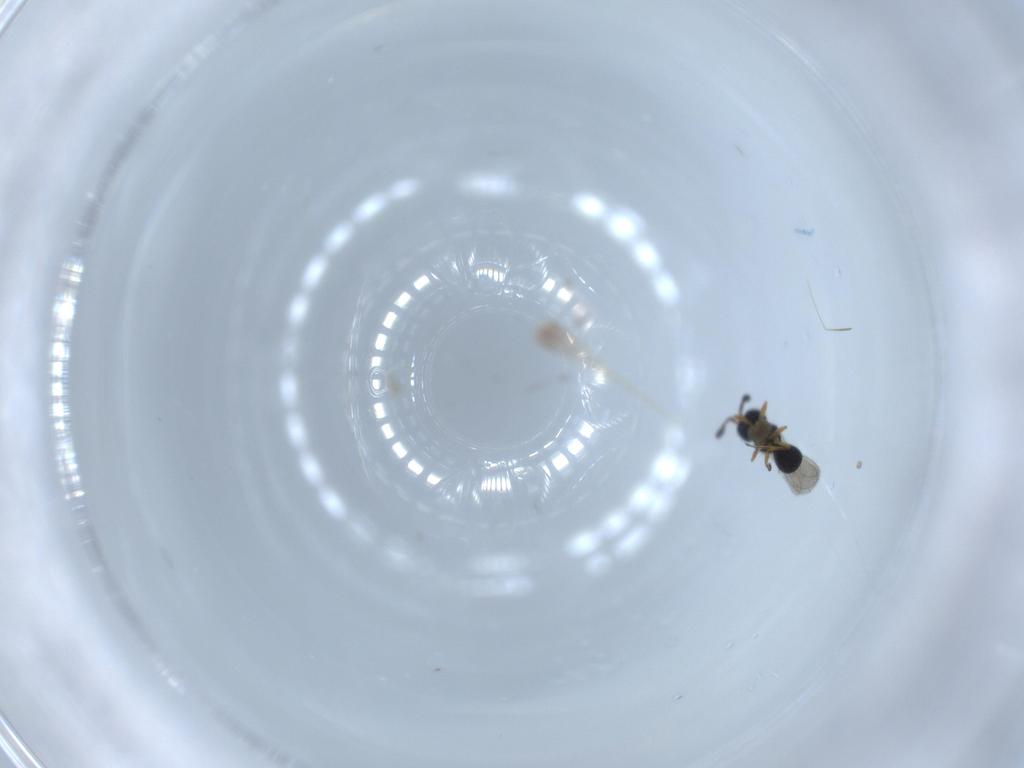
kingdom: Animalia
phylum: Arthropoda
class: Insecta
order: Hymenoptera
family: Scelionidae
